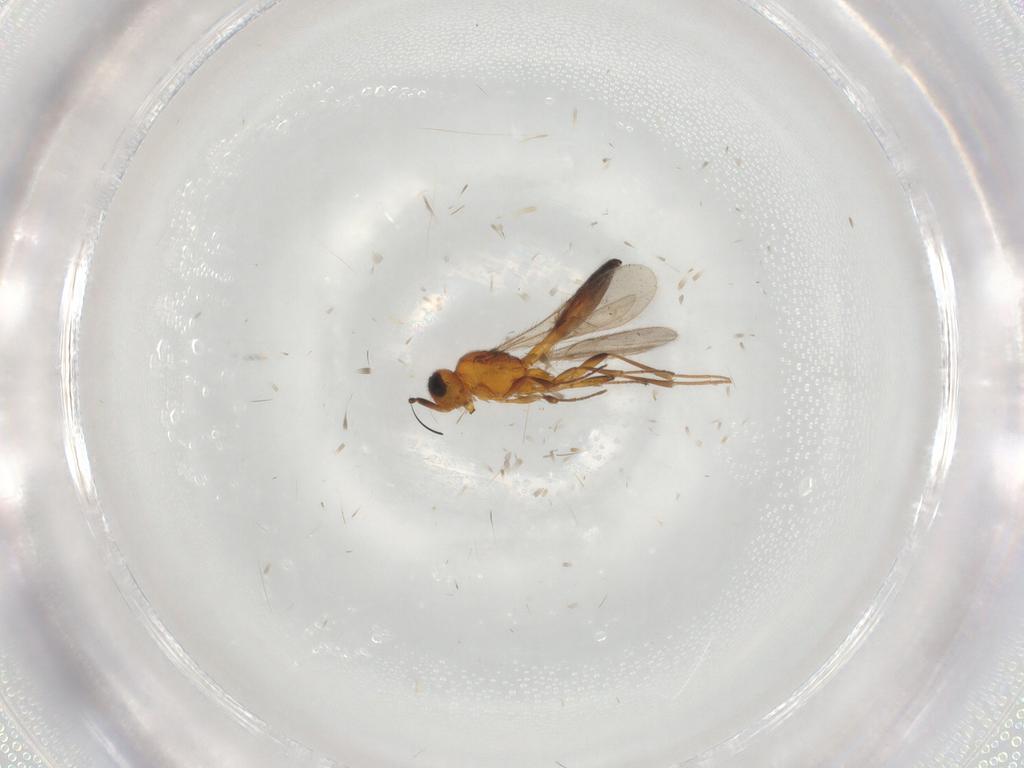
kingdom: Animalia
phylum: Arthropoda
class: Insecta
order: Hymenoptera
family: Scelionidae
